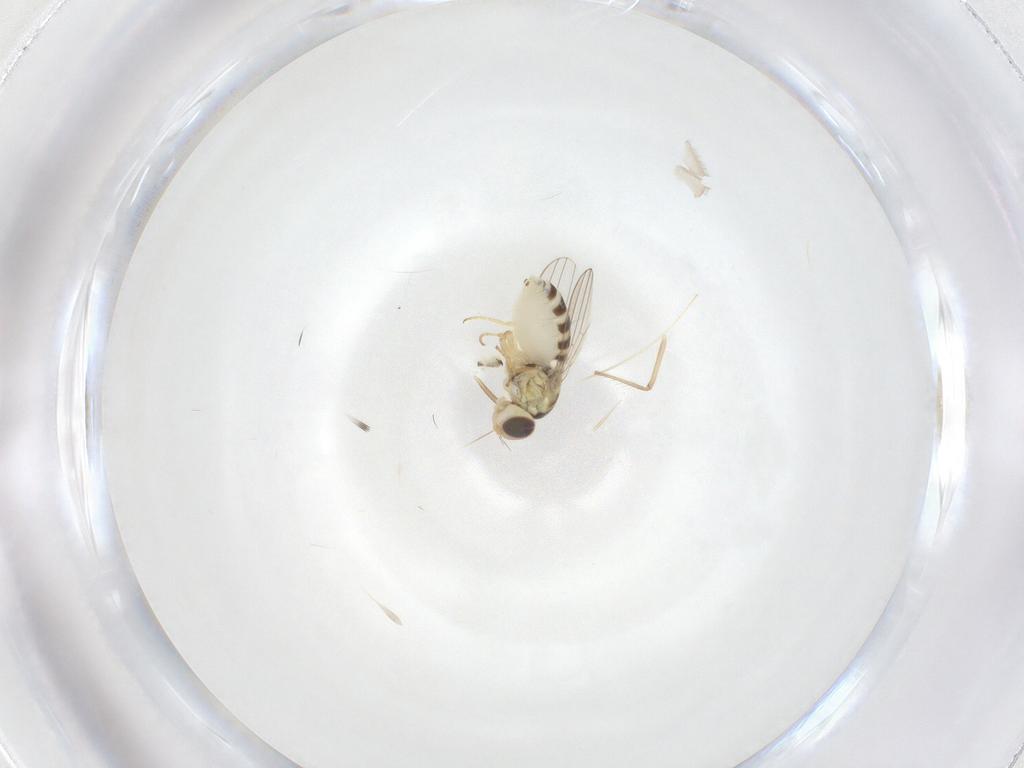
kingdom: Animalia
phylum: Arthropoda
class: Insecta
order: Diptera
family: Chyromyidae
